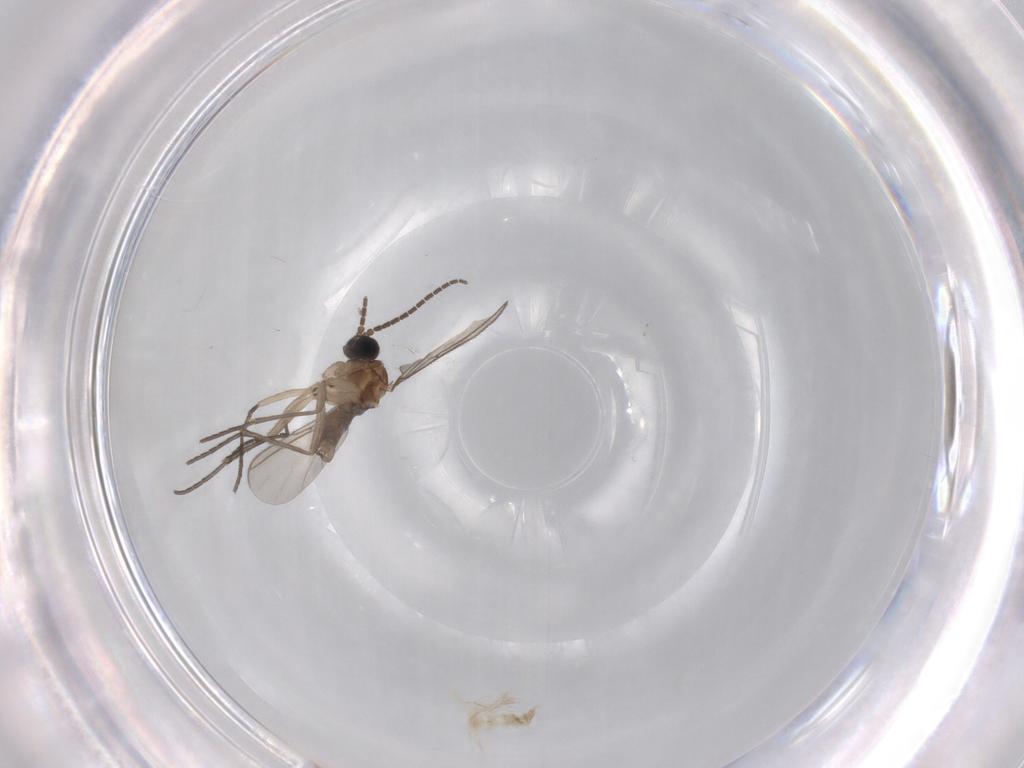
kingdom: Animalia
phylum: Arthropoda
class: Insecta
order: Diptera
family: Sciaridae
